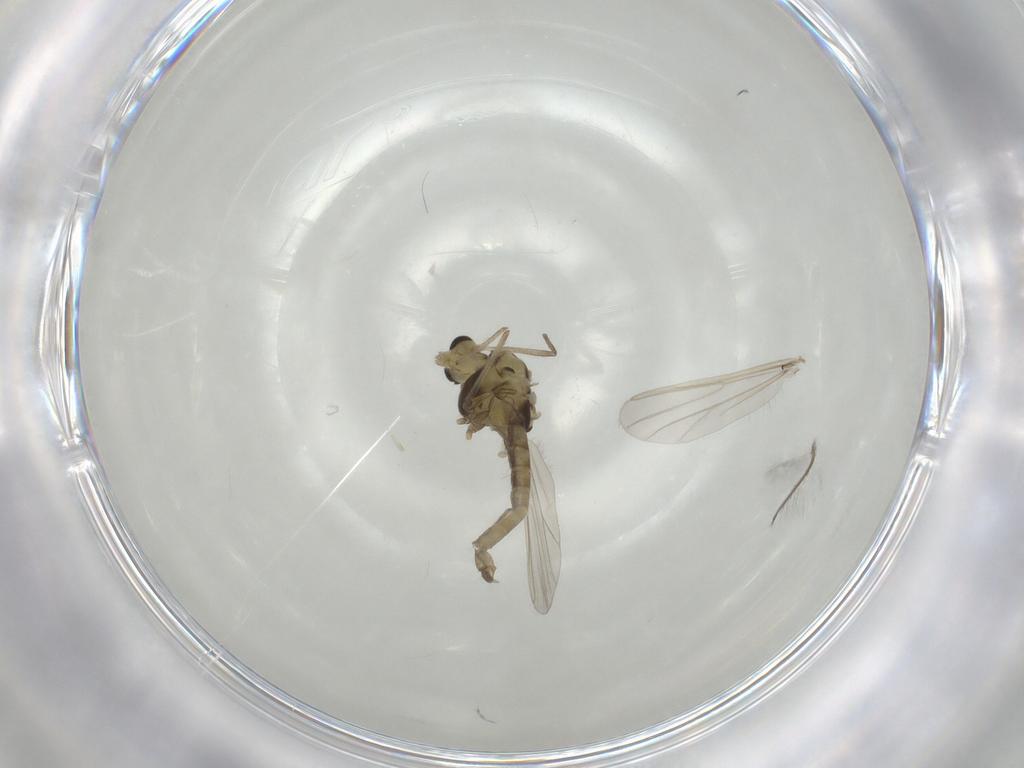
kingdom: Animalia
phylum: Arthropoda
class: Insecta
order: Diptera
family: Chironomidae
